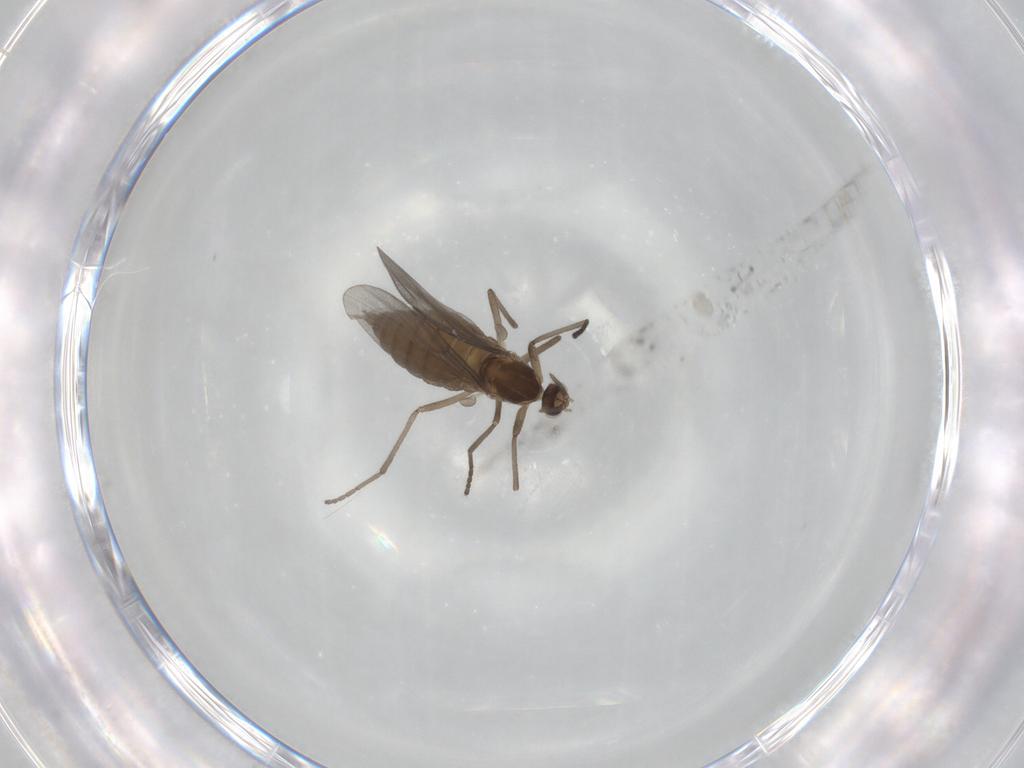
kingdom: Animalia
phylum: Arthropoda
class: Insecta
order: Diptera
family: Cecidomyiidae
